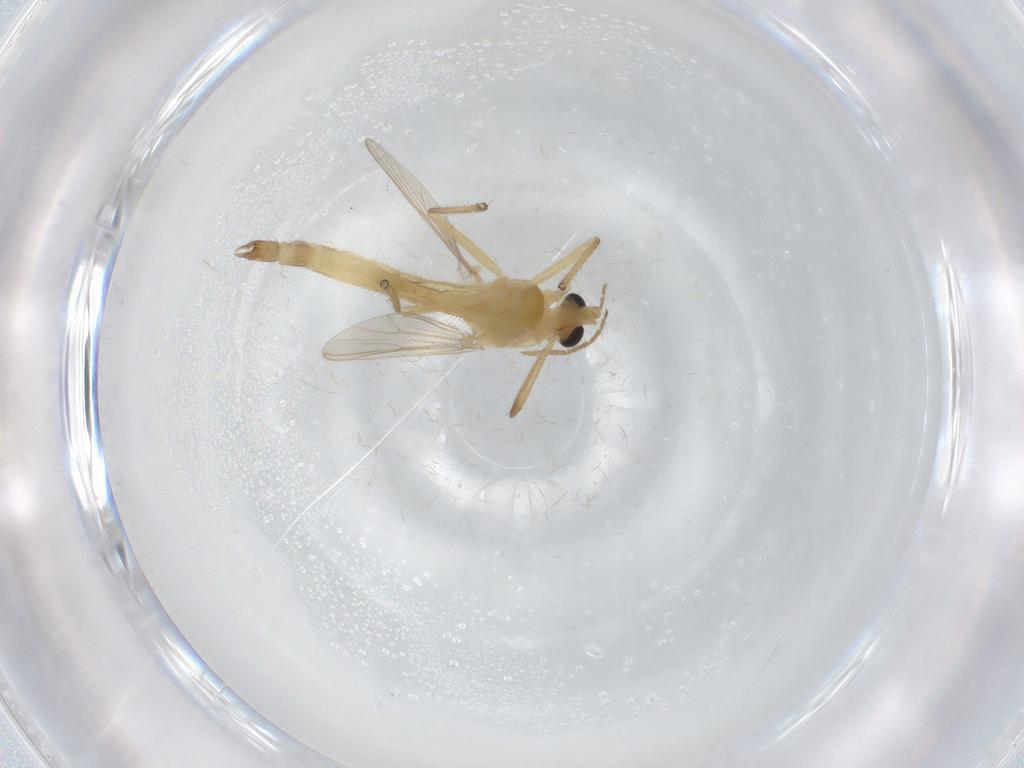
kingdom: Animalia
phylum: Arthropoda
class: Insecta
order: Diptera
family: Chironomidae
